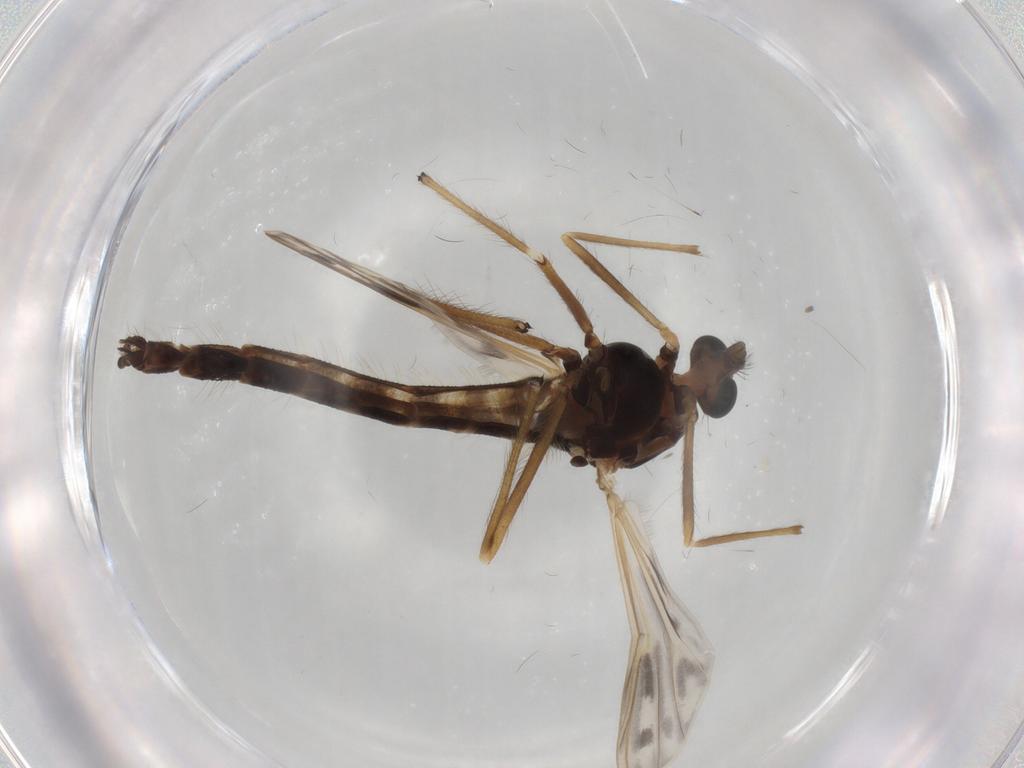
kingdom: Animalia
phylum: Arthropoda
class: Insecta
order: Diptera
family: Chironomidae
